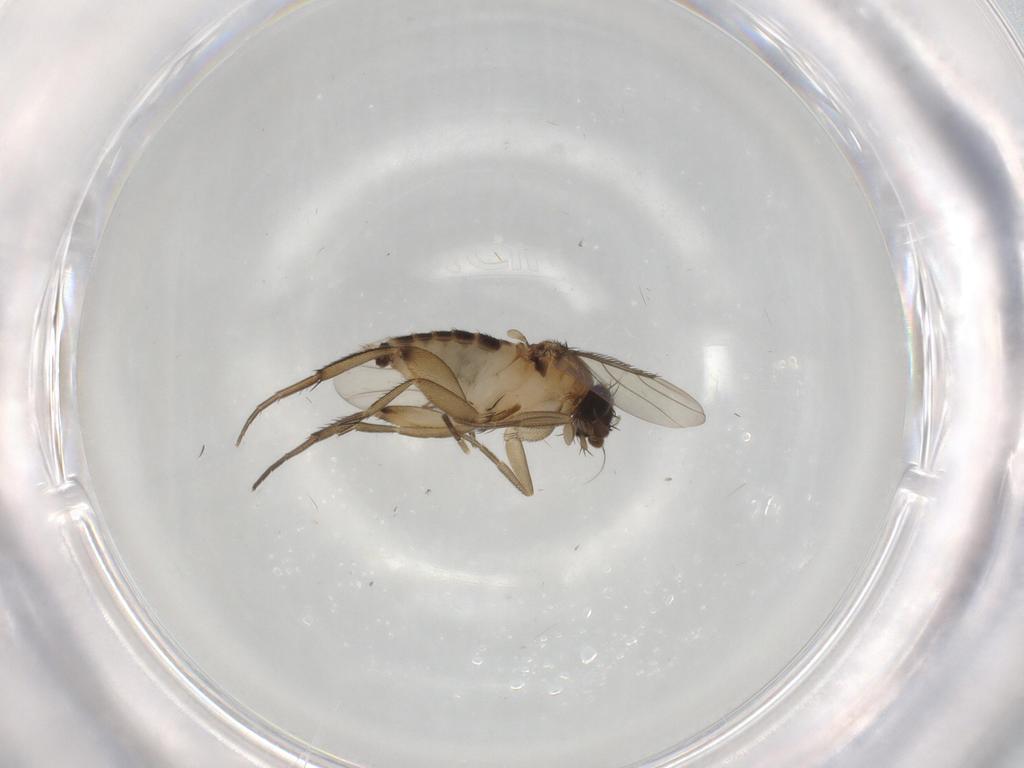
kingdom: Animalia
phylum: Arthropoda
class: Insecta
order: Diptera
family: Phoridae
